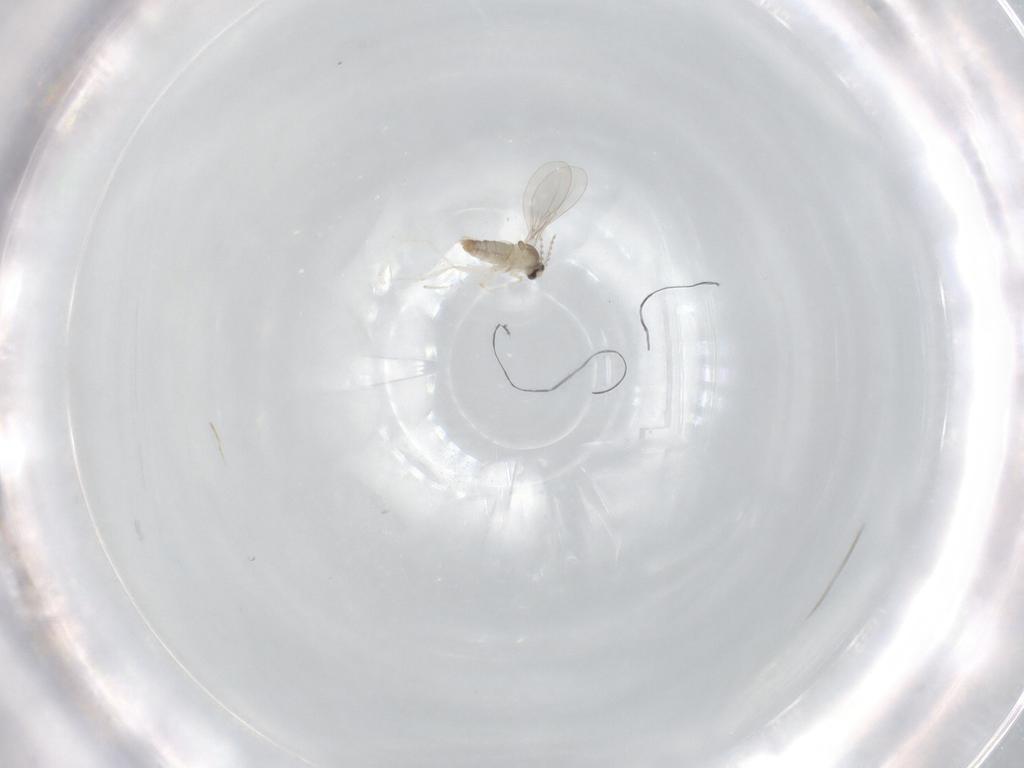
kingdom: Animalia
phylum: Arthropoda
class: Insecta
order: Diptera
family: Cecidomyiidae
